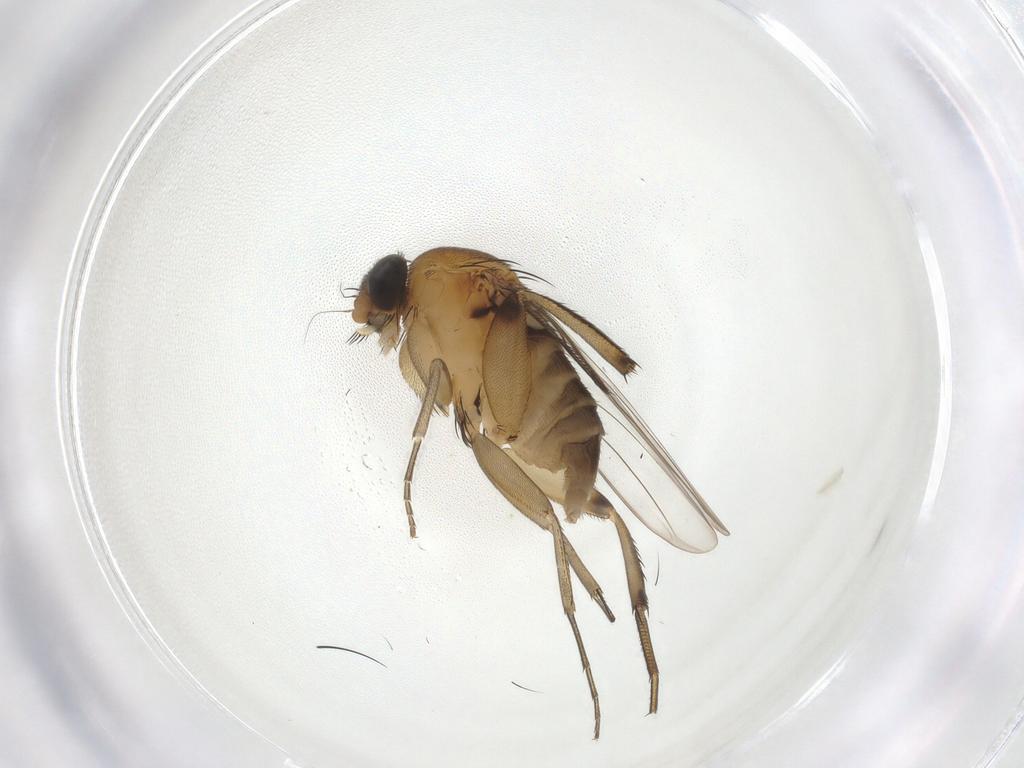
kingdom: Animalia
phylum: Arthropoda
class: Insecta
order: Diptera
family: Phoridae
